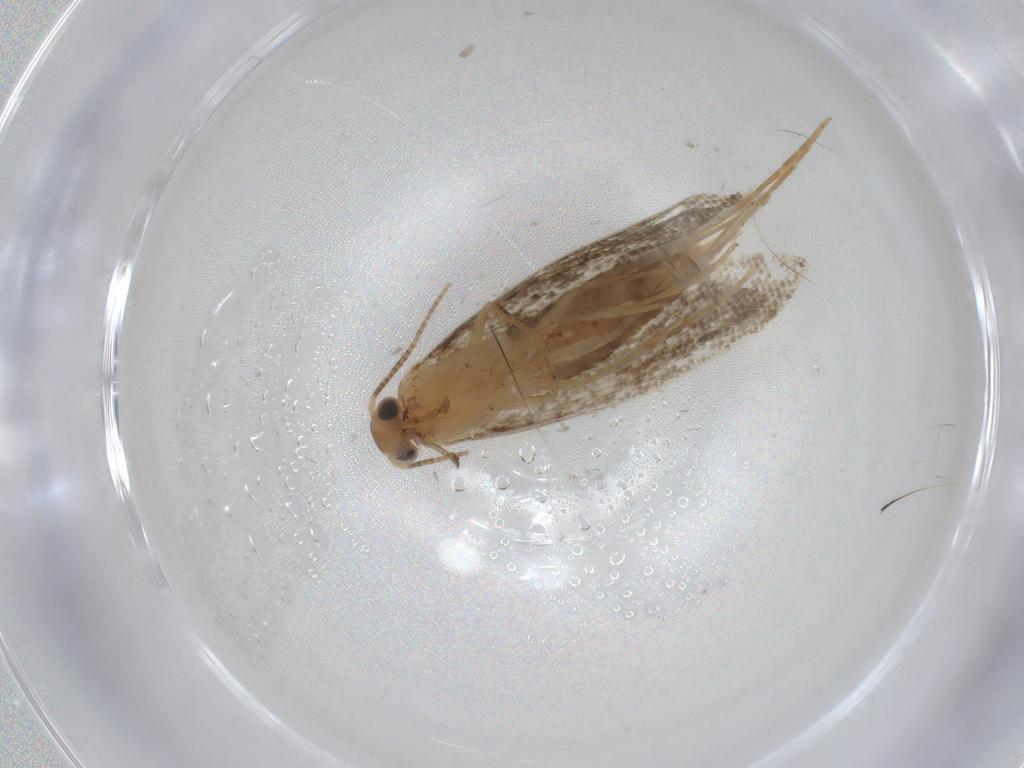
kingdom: Animalia
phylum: Arthropoda
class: Insecta
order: Lepidoptera
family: Tineidae
